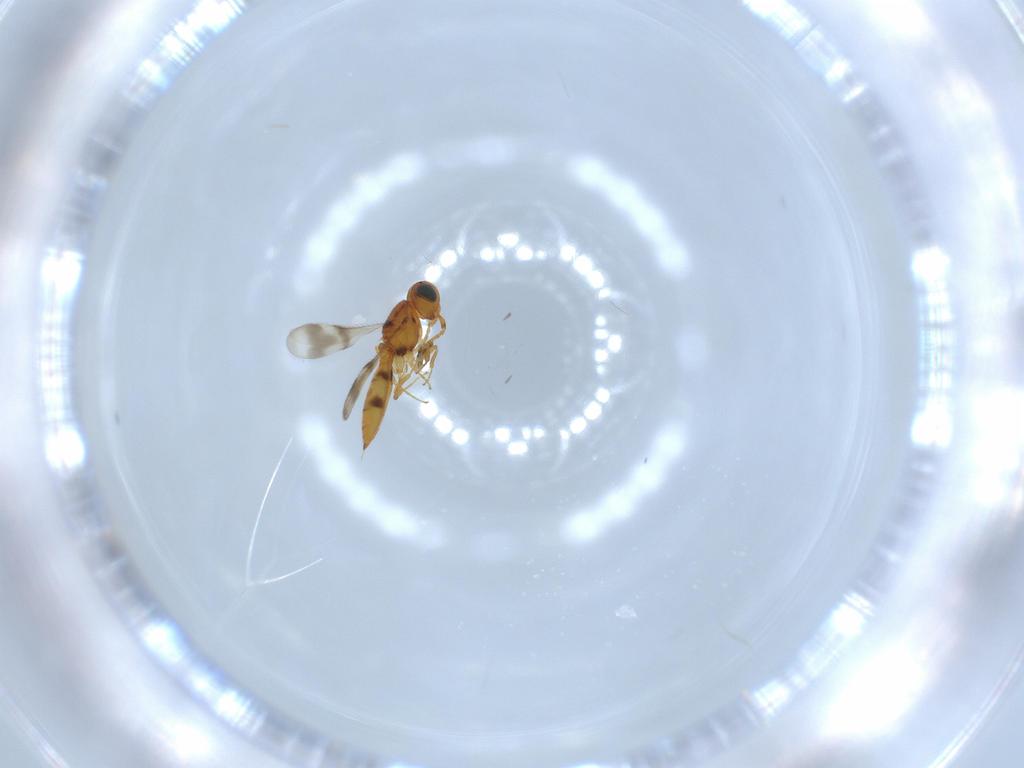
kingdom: Animalia
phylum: Arthropoda
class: Insecta
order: Hymenoptera
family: Scelionidae
